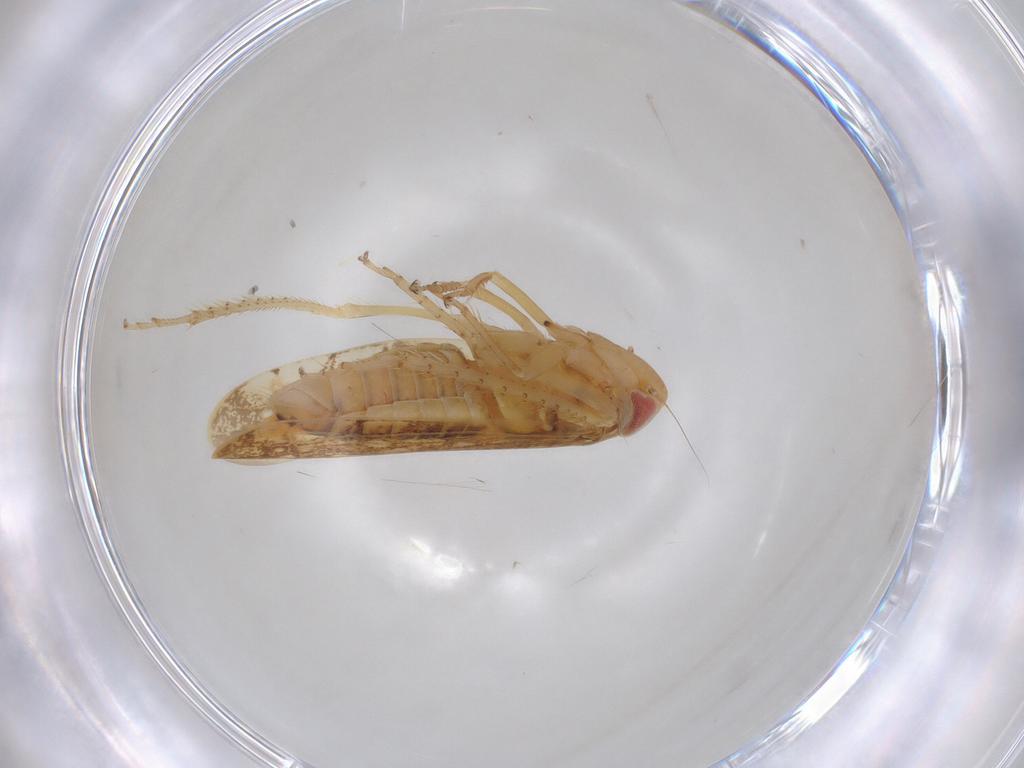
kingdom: Animalia
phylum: Arthropoda
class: Insecta
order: Hemiptera
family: Cicadellidae
